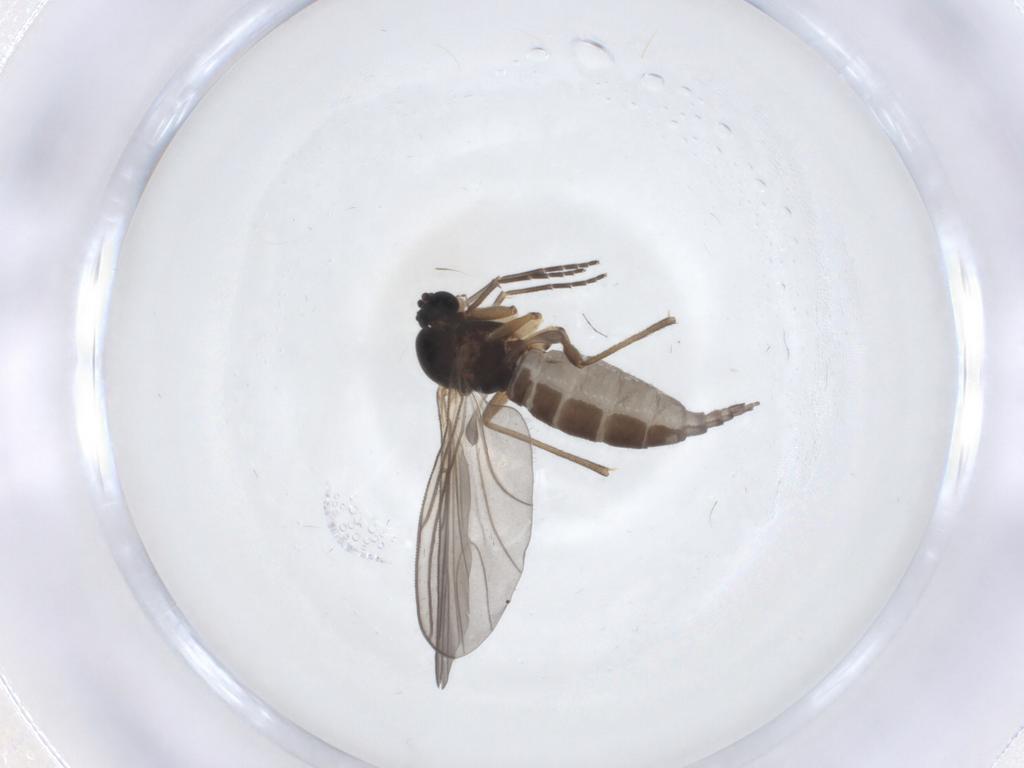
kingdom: Animalia
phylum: Arthropoda
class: Insecta
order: Diptera
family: Sciaridae
